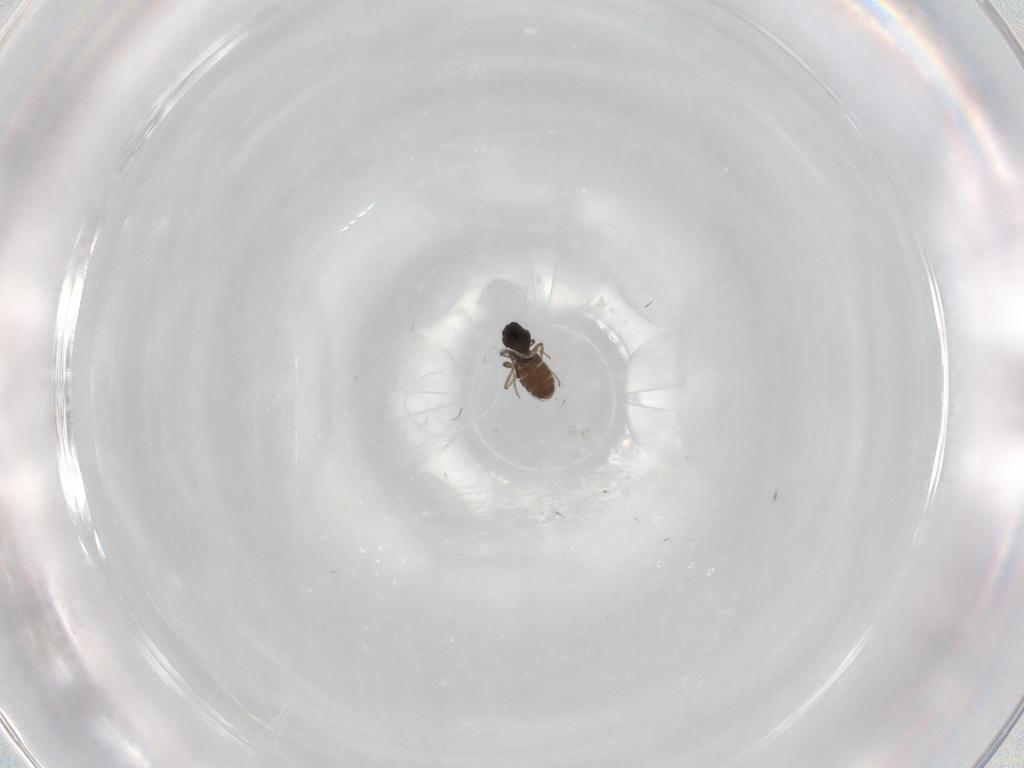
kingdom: Animalia
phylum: Arthropoda
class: Insecta
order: Diptera
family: Ceratopogonidae
